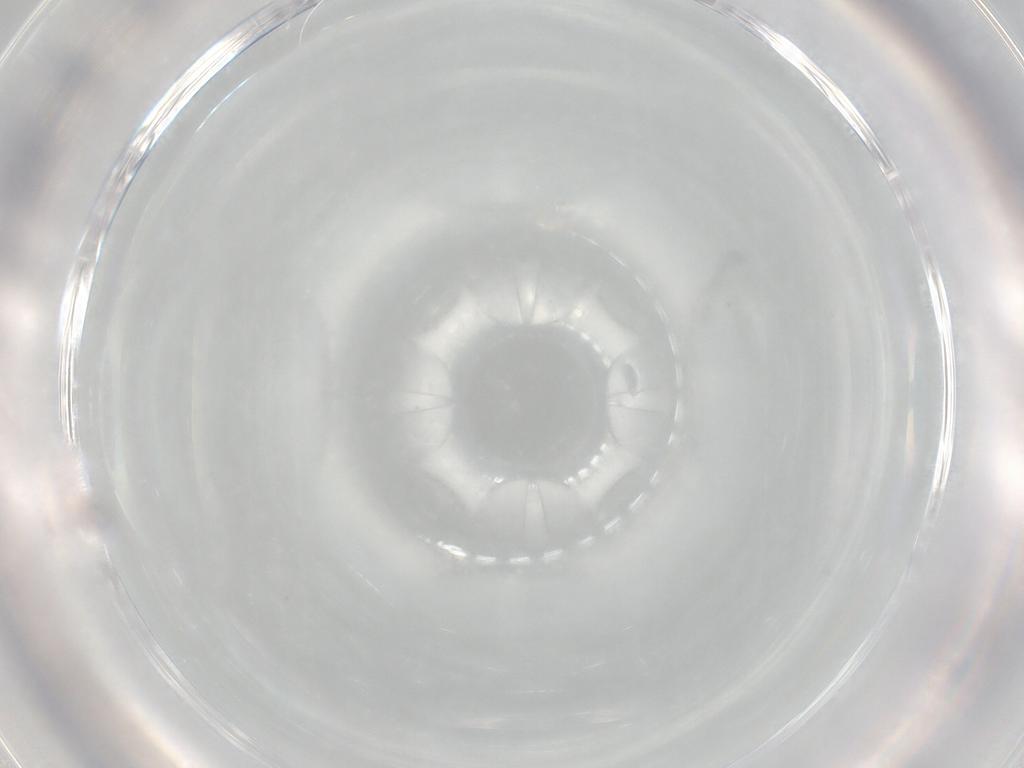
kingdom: Animalia
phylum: Arthropoda
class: Collembola
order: Entomobryomorpha
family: Entomobryidae
